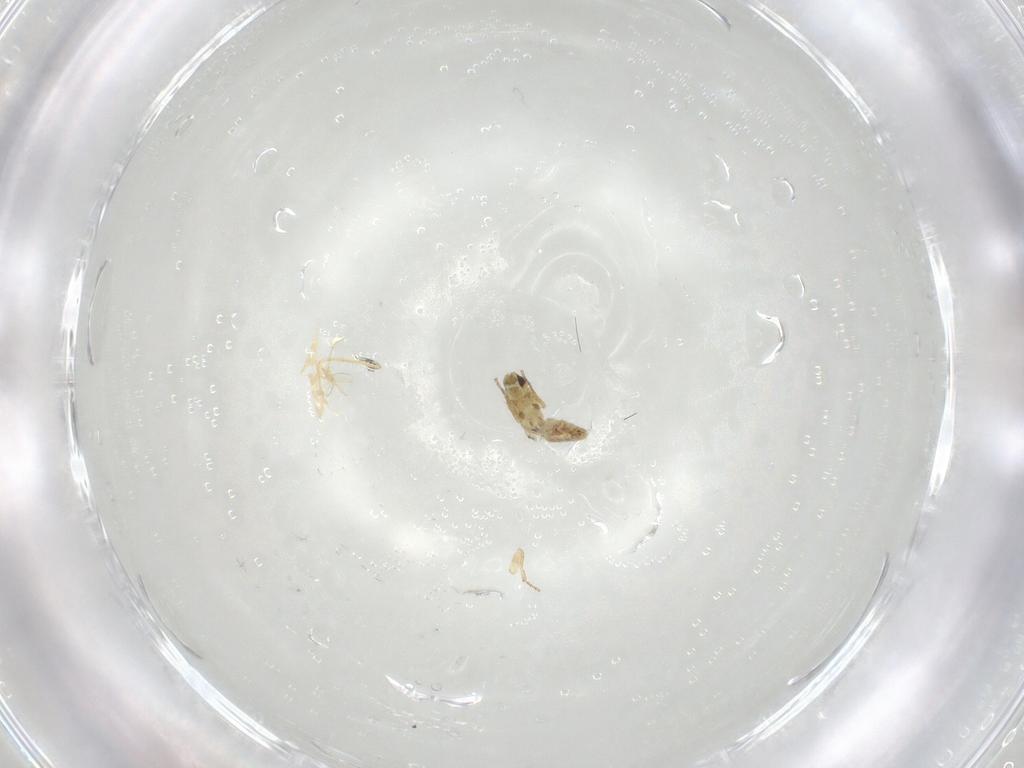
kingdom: Animalia
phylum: Arthropoda
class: Insecta
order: Diptera
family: Agromyzidae
